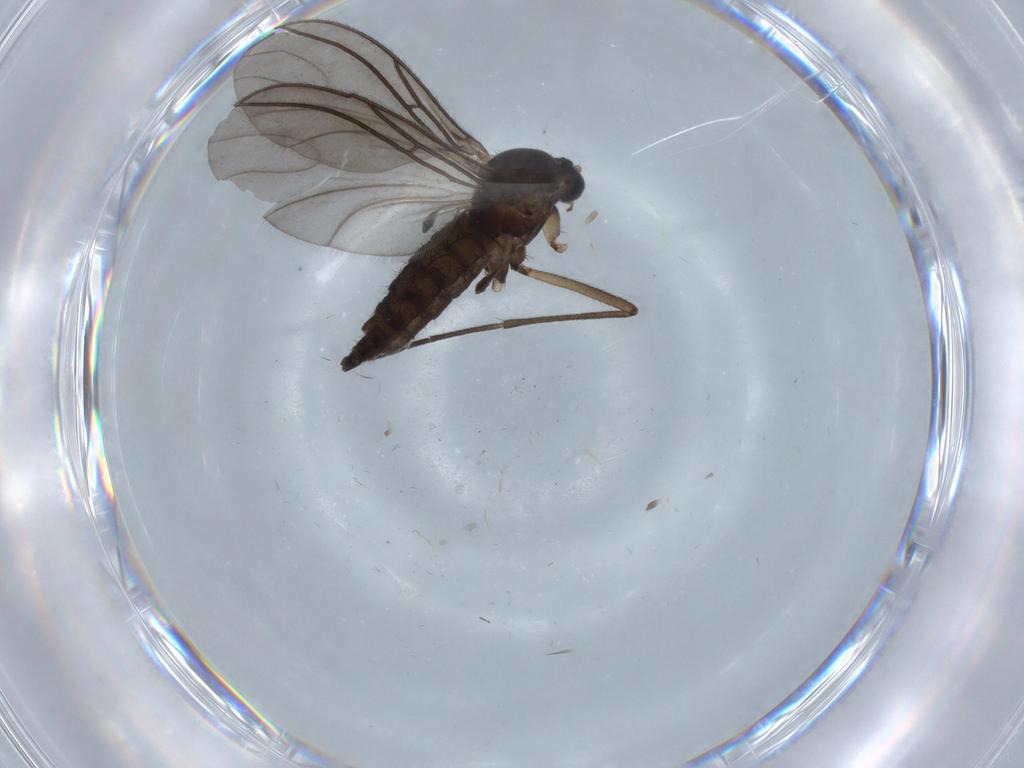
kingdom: Animalia
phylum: Arthropoda
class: Insecta
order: Diptera
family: Sciaridae
